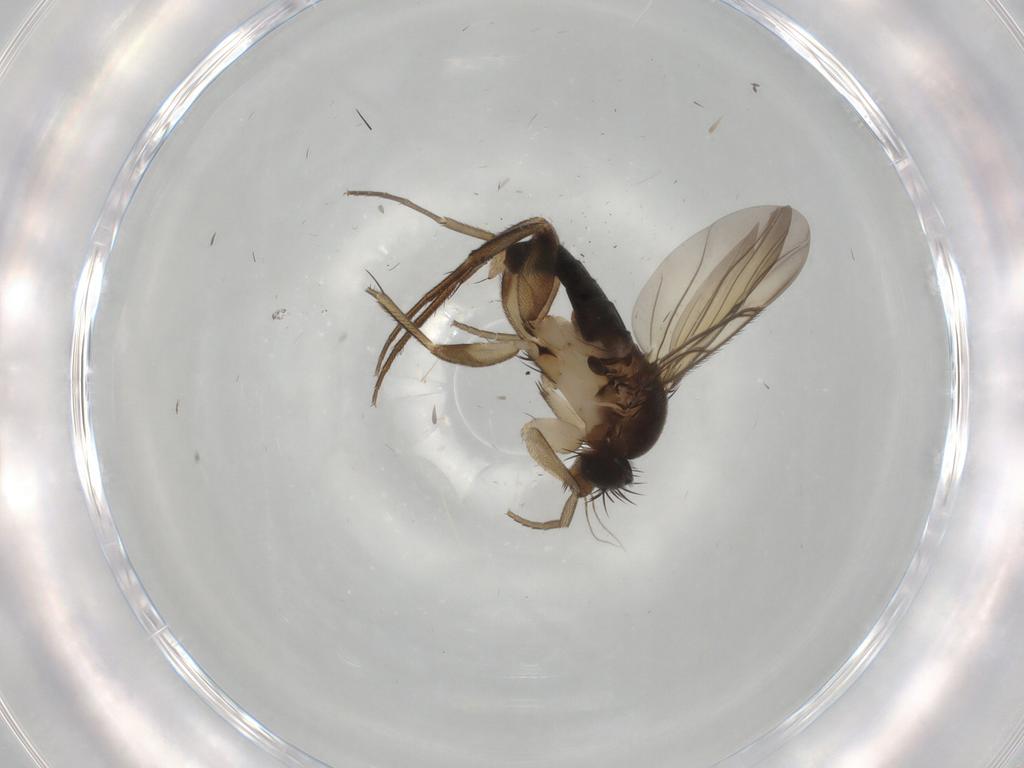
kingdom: Animalia
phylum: Arthropoda
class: Insecta
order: Diptera
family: Phoridae
